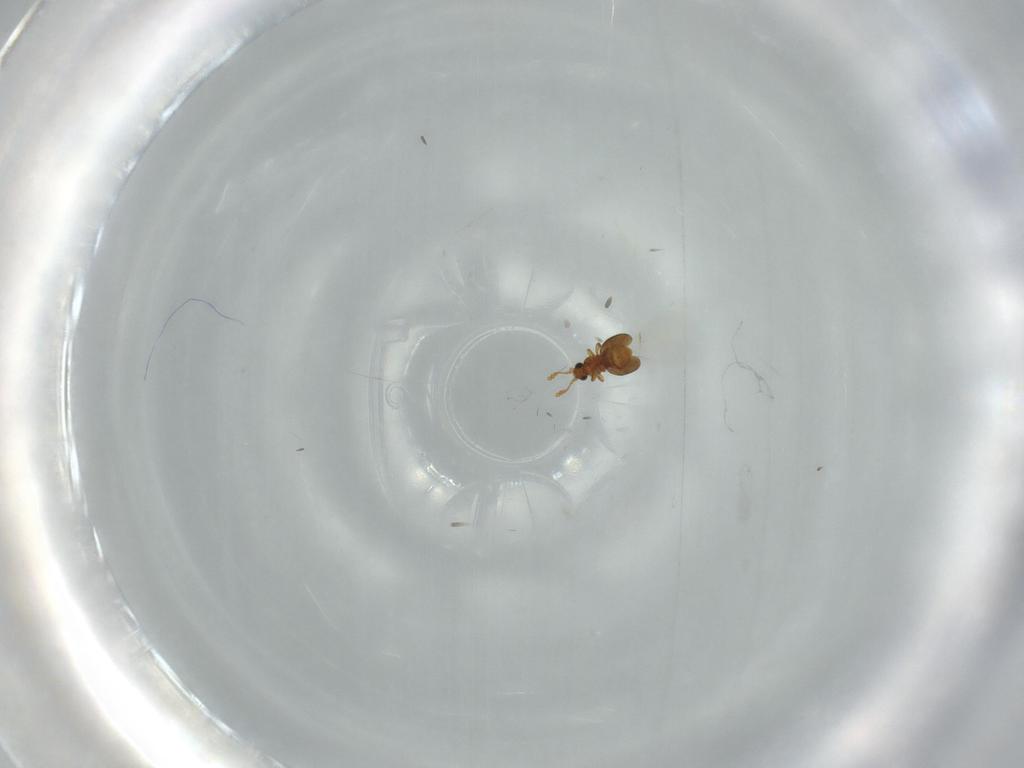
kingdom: Animalia
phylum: Arthropoda
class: Insecta
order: Coleoptera
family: Staphylinidae
